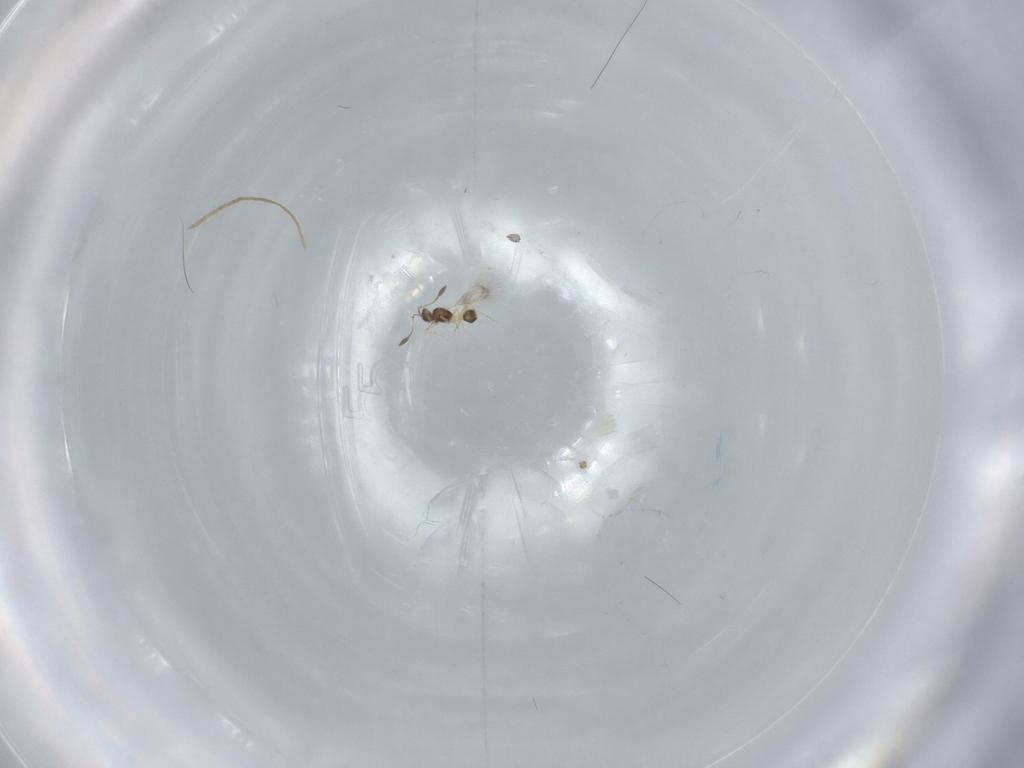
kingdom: Animalia
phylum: Arthropoda
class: Insecta
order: Hymenoptera
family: Mymarommatidae
